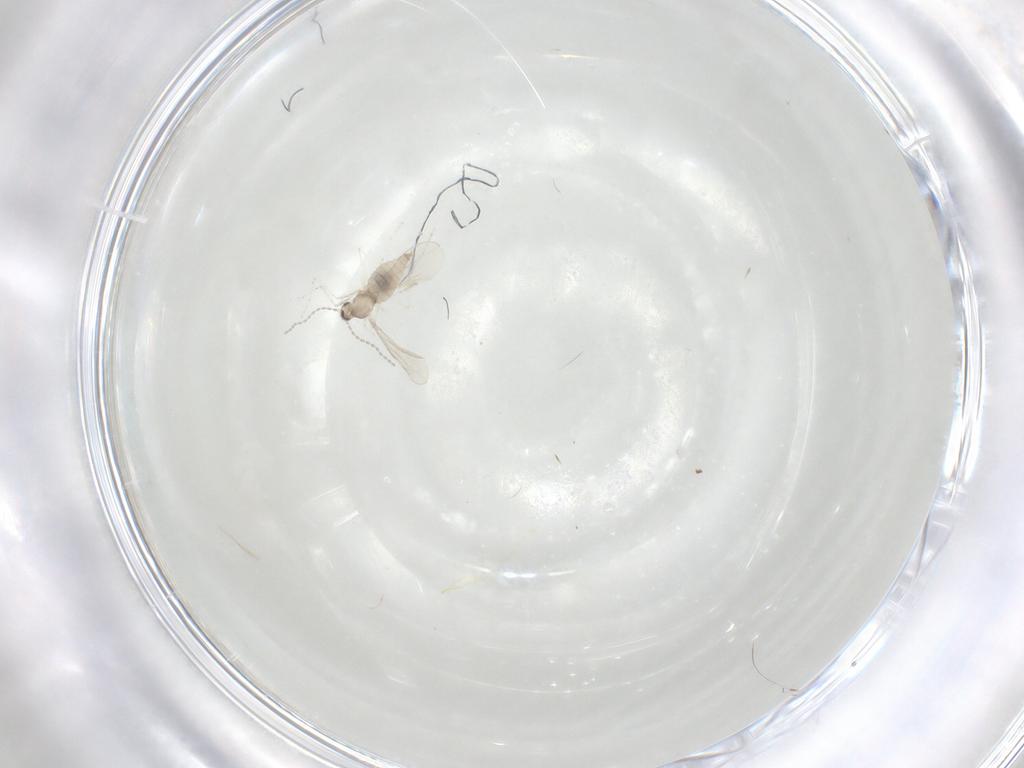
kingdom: Animalia
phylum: Arthropoda
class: Insecta
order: Diptera
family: Cecidomyiidae
